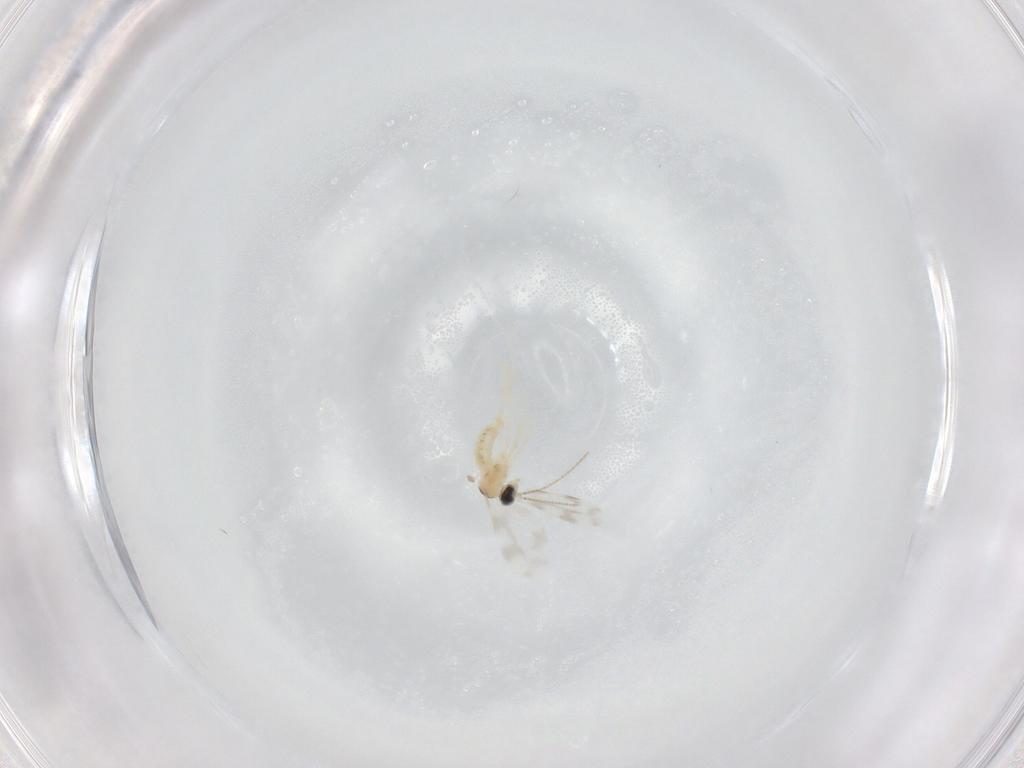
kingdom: Animalia
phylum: Arthropoda
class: Insecta
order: Diptera
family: Cecidomyiidae
